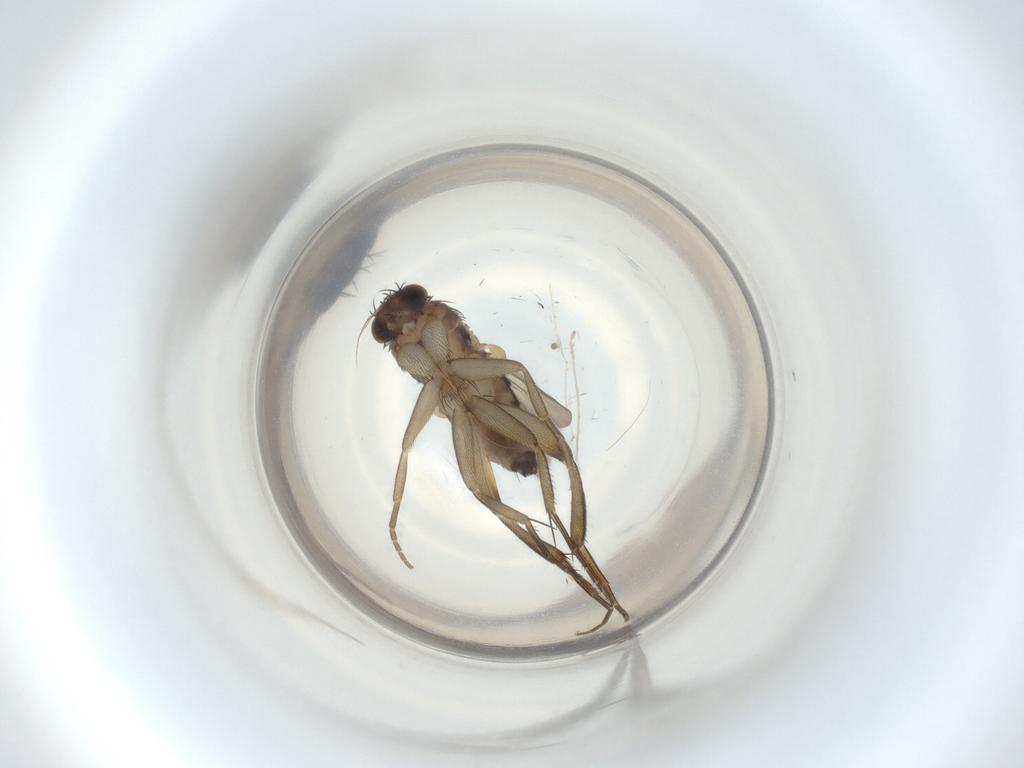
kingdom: Animalia
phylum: Arthropoda
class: Insecta
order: Diptera
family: Phoridae
